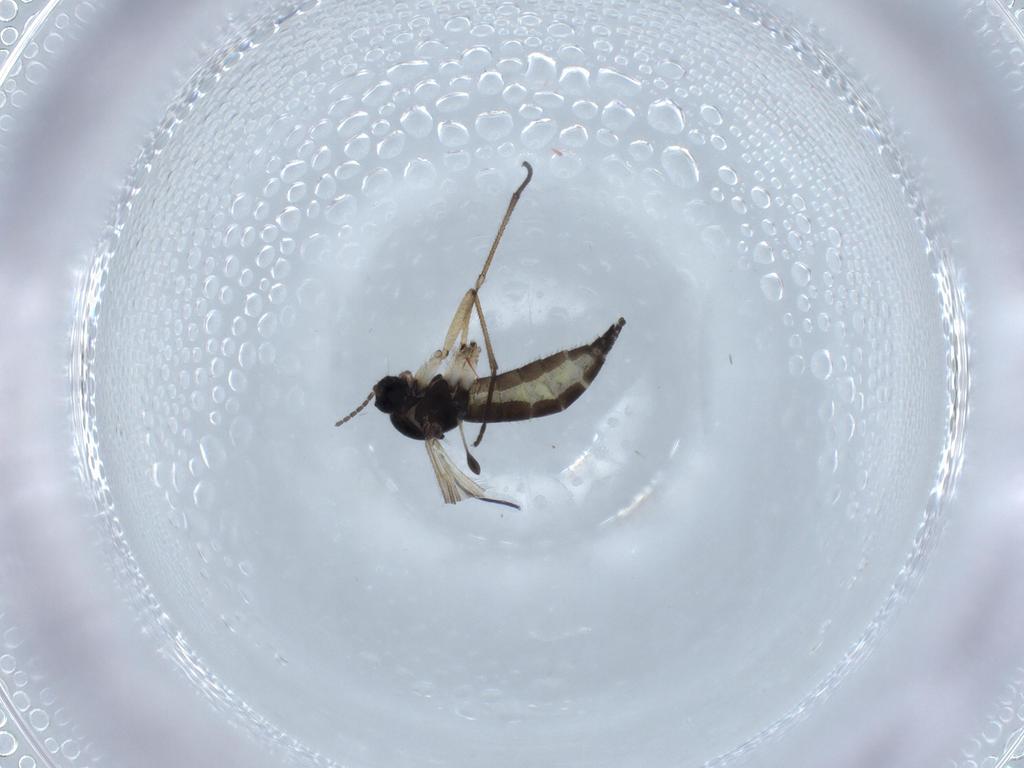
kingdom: Animalia
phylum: Arthropoda
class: Insecta
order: Diptera
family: Sciaridae
